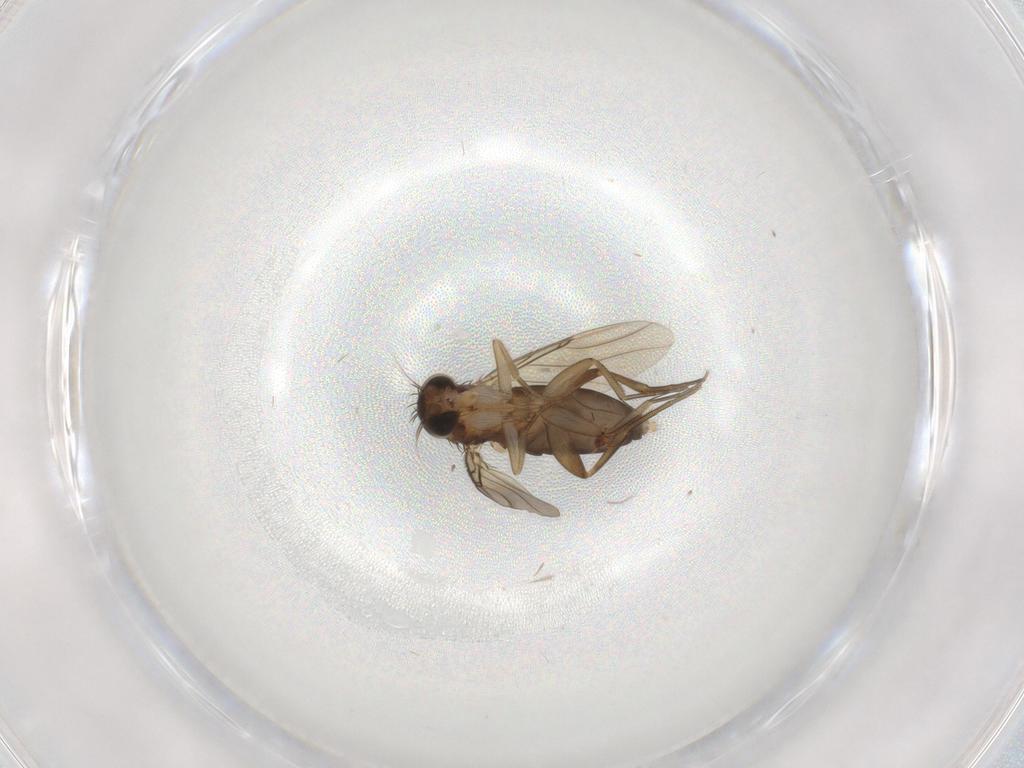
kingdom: Animalia
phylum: Arthropoda
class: Insecta
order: Diptera
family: Phoridae
